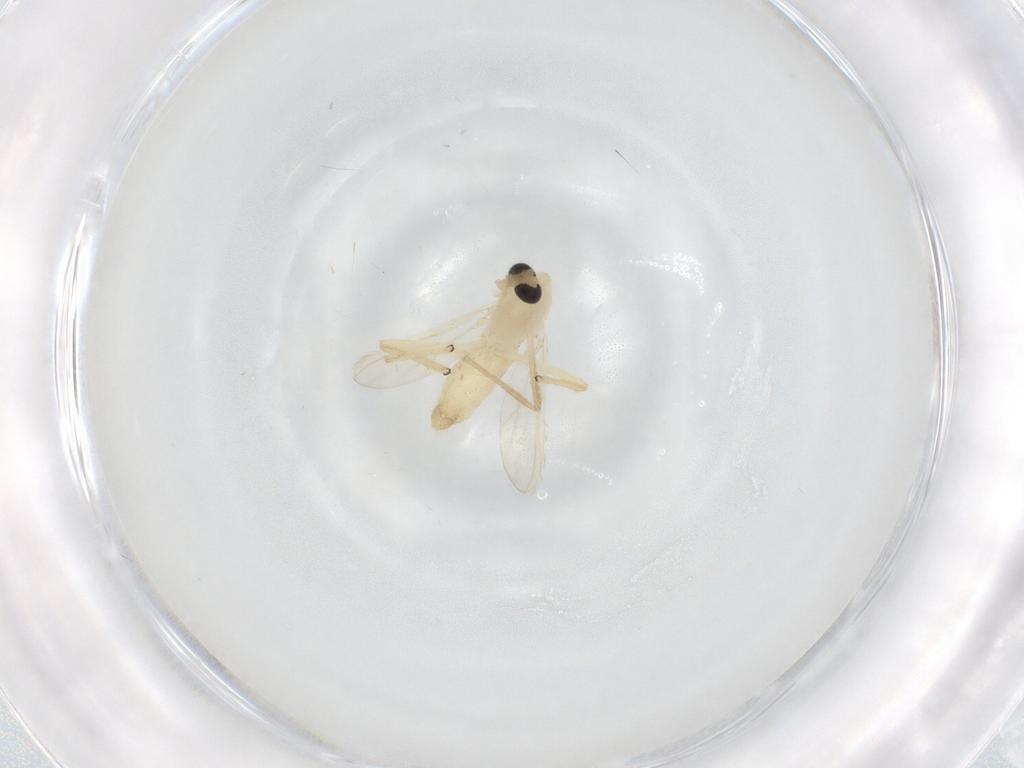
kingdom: Animalia
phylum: Arthropoda
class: Insecta
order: Diptera
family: Chironomidae
